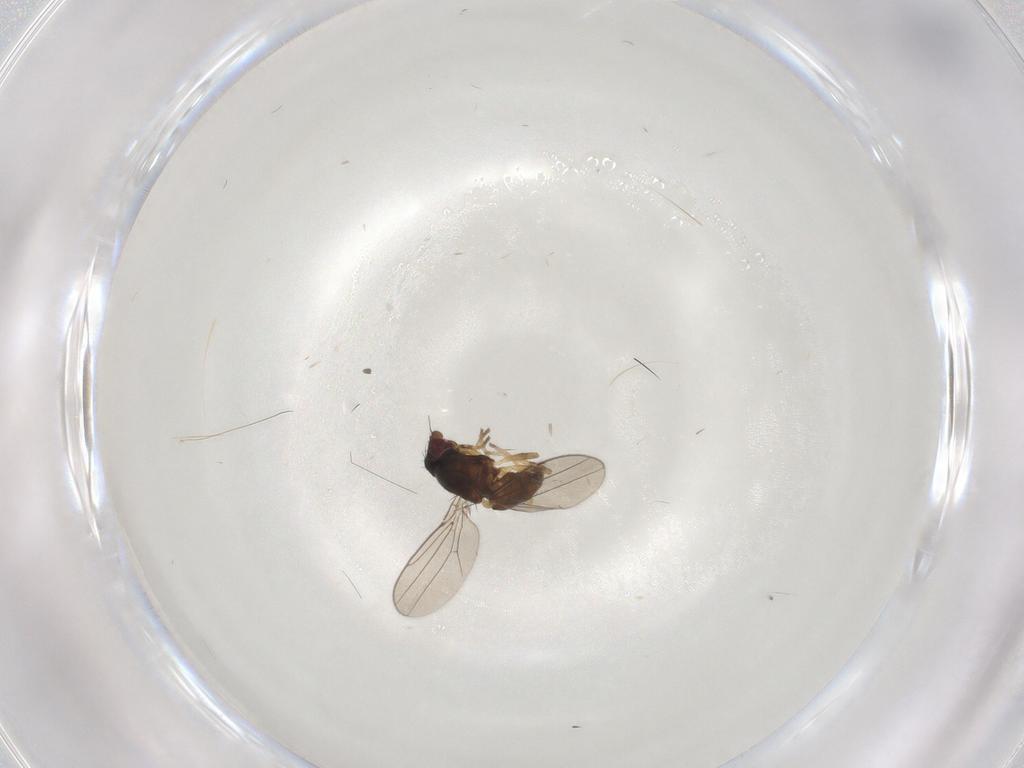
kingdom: Animalia
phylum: Arthropoda
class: Insecta
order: Diptera
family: Chloropidae
